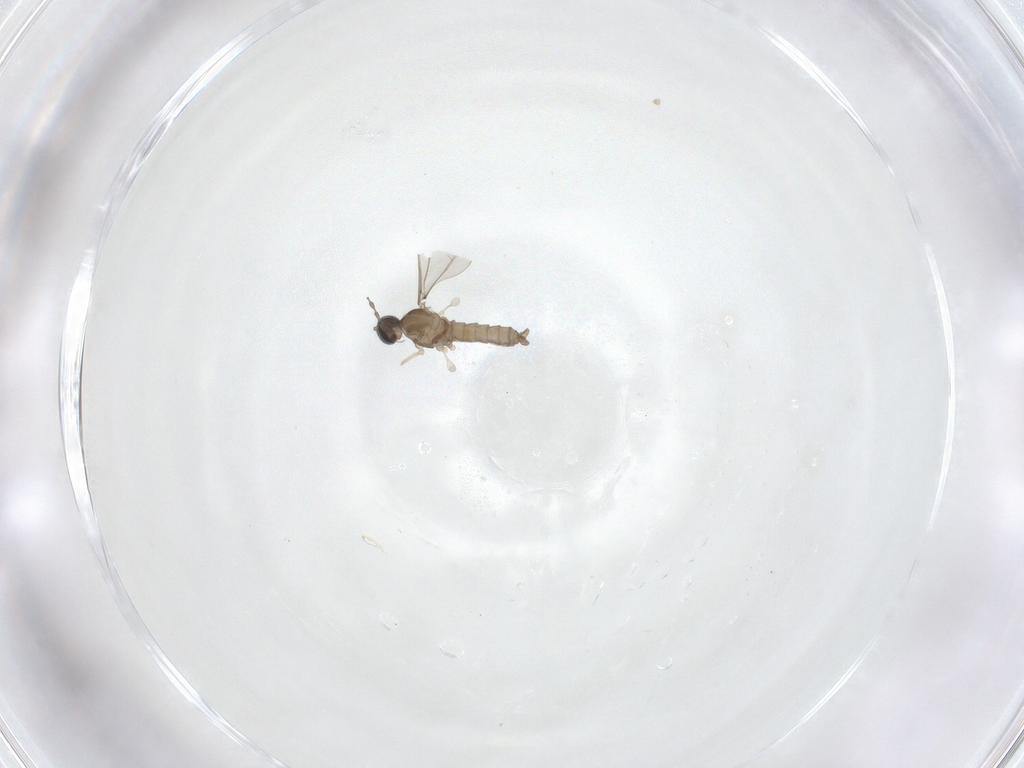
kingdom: Animalia
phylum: Arthropoda
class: Insecta
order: Diptera
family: Cecidomyiidae
